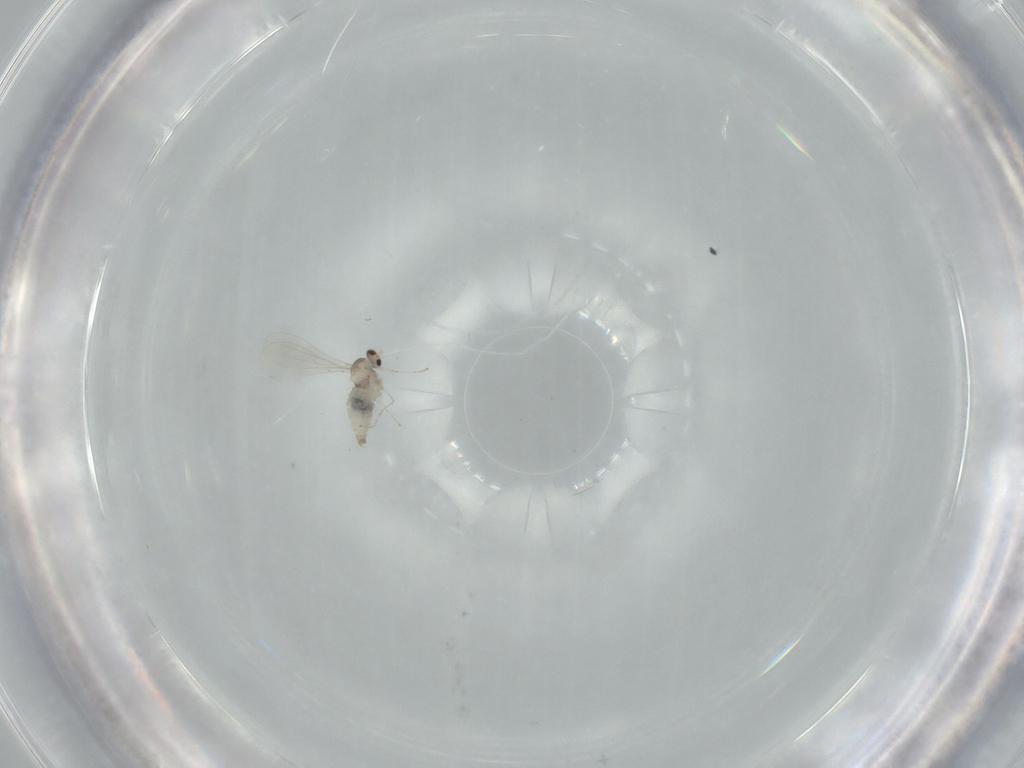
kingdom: Animalia
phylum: Arthropoda
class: Insecta
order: Diptera
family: Cecidomyiidae
